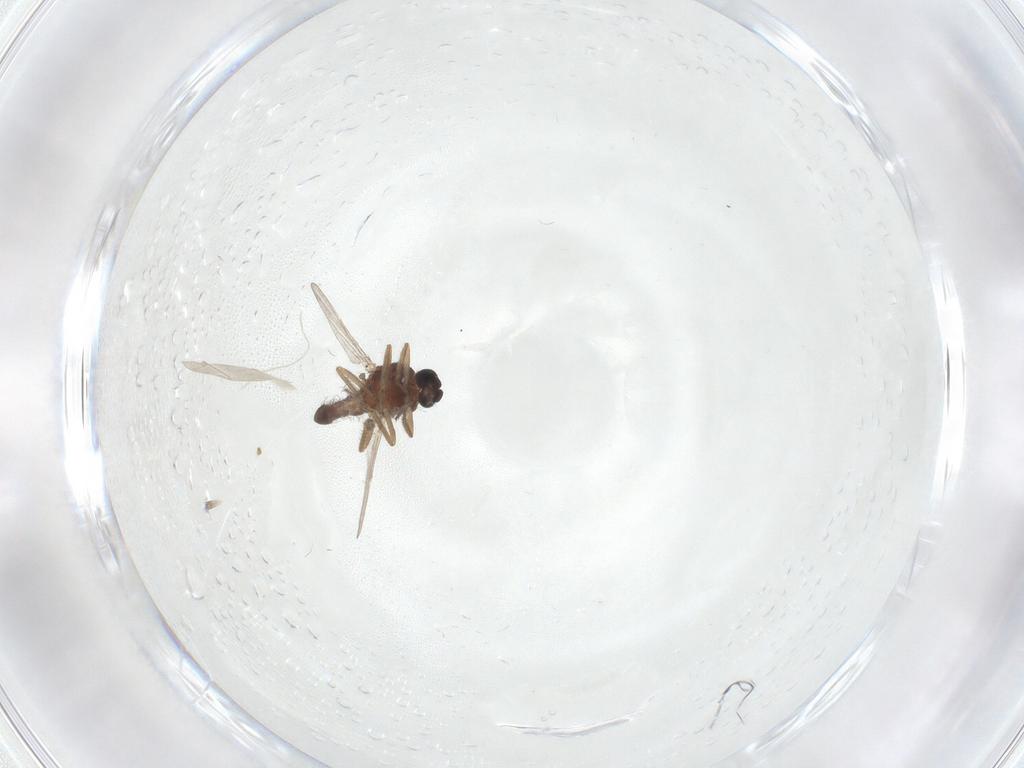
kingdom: Animalia
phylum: Arthropoda
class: Insecta
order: Diptera
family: Ceratopogonidae
